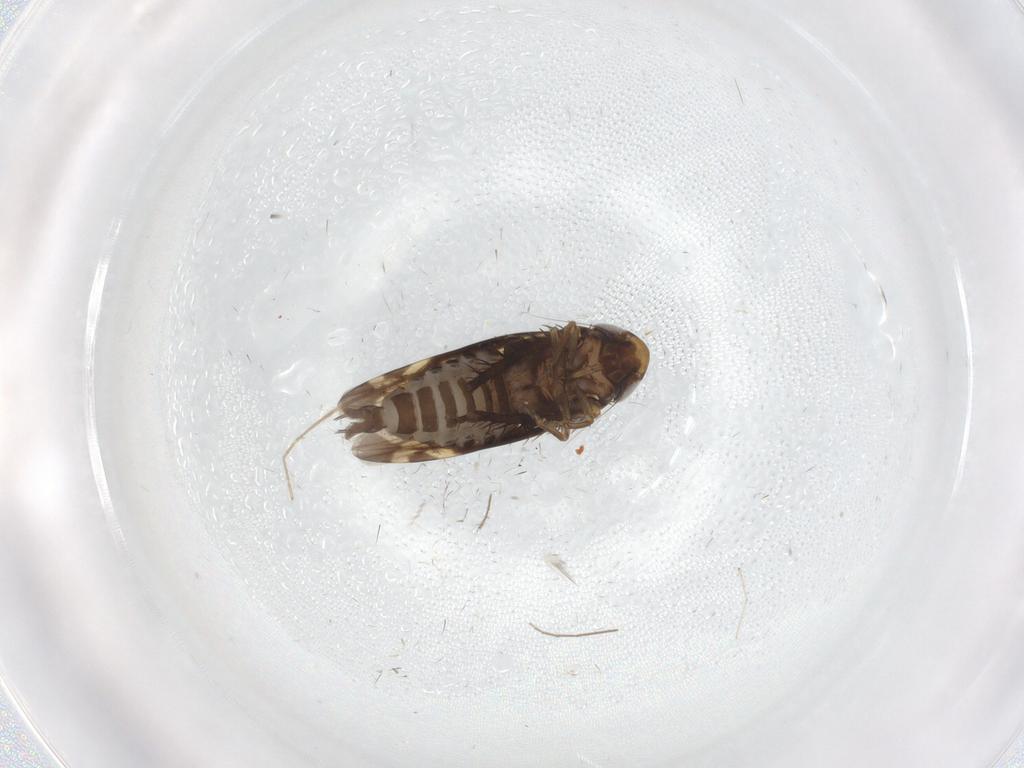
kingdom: Animalia
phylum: Arthropoda
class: Insecta
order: Hemiptera
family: Cicadellidae
